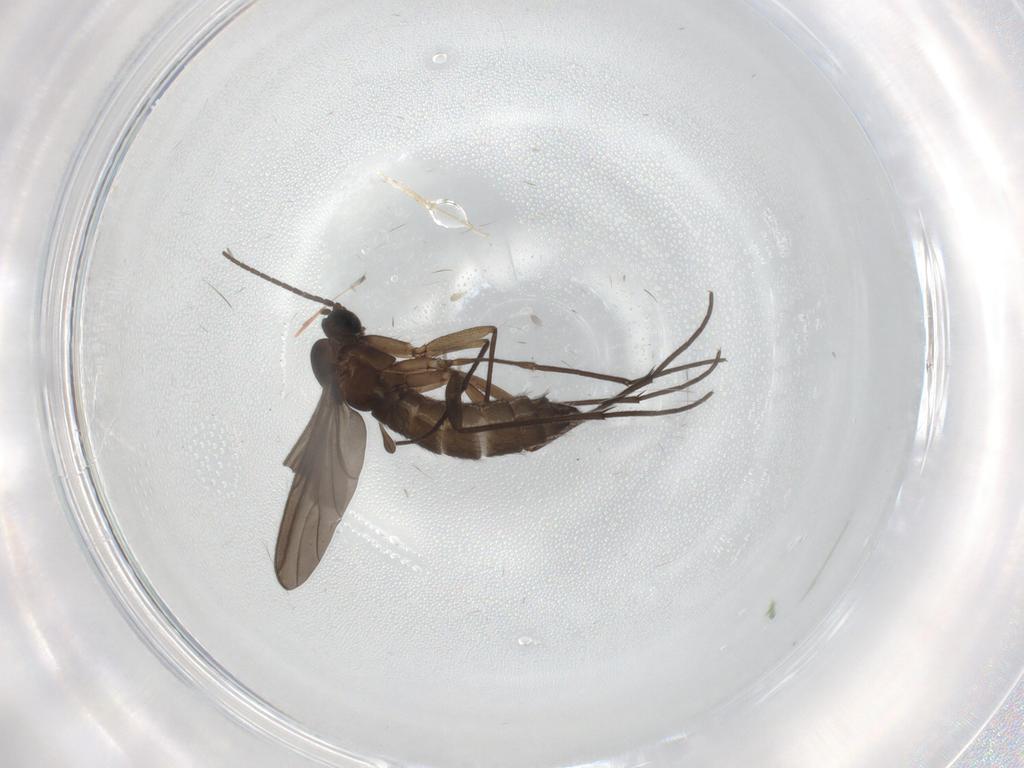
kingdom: Animalia
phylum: Arthropoda
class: Insecta
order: Diptera
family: Sciaridae
